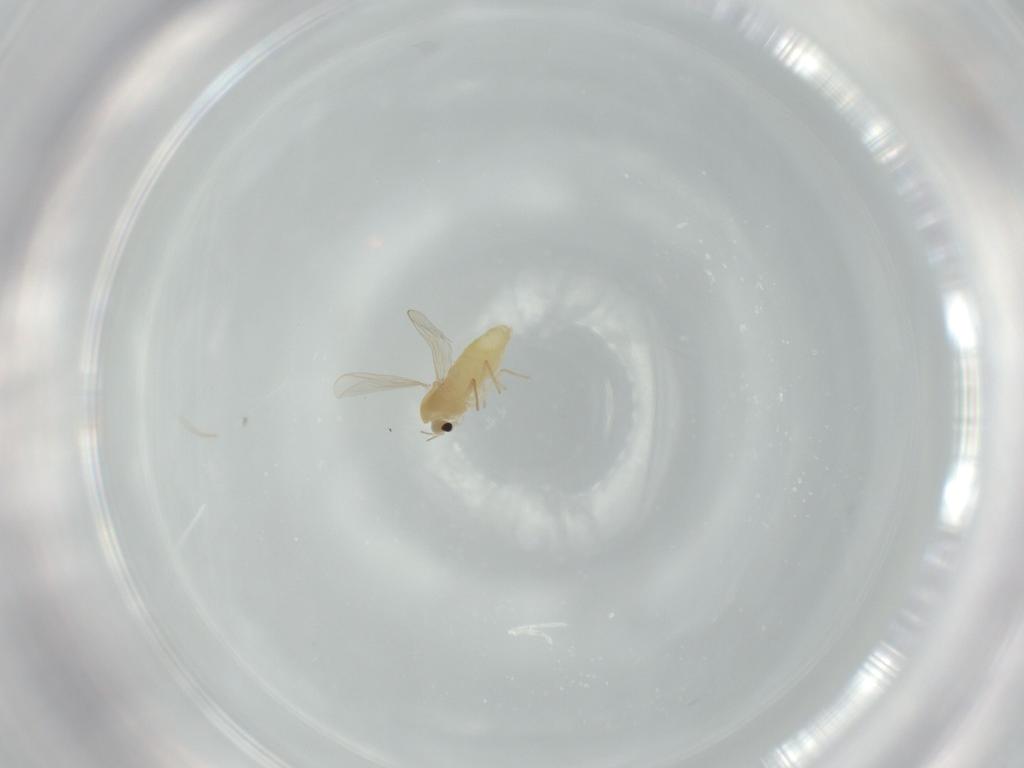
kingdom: Animalia
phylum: Arthropoda
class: Insecta
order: Diptera
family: Chironomidae
